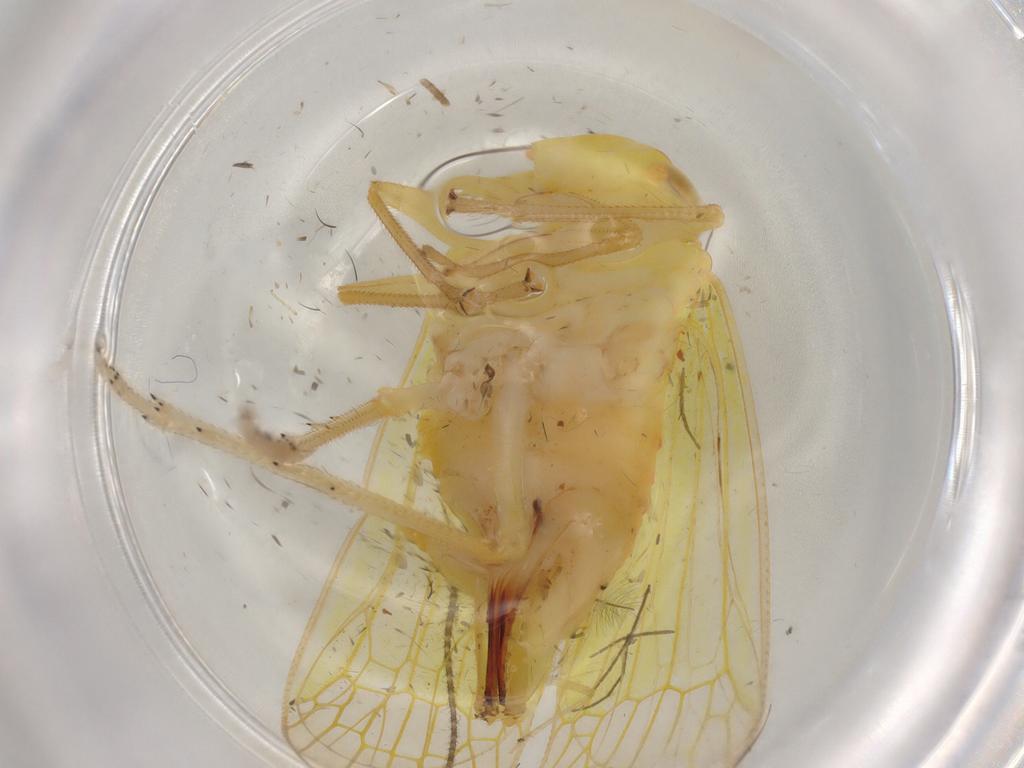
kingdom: Animalia
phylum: Arthropoda
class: Insecta
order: Hemiptera
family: Tropiduchidae
